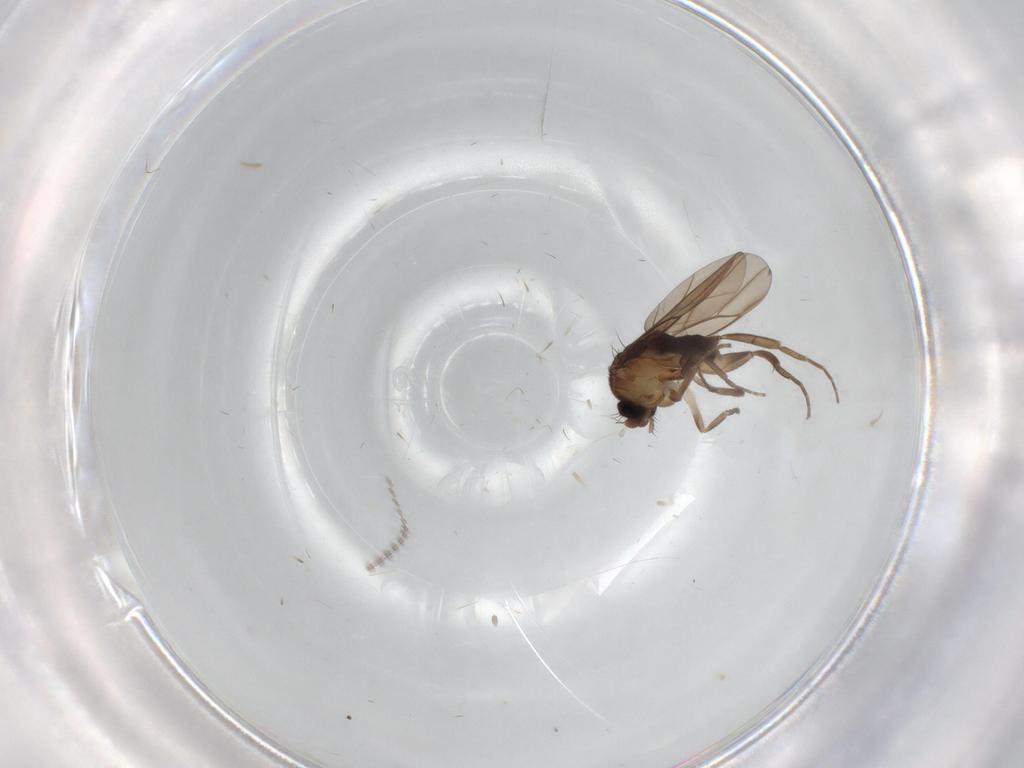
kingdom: Animalia
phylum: Arthropoda
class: Insecta
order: Diptera
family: Cecidomyiidae
